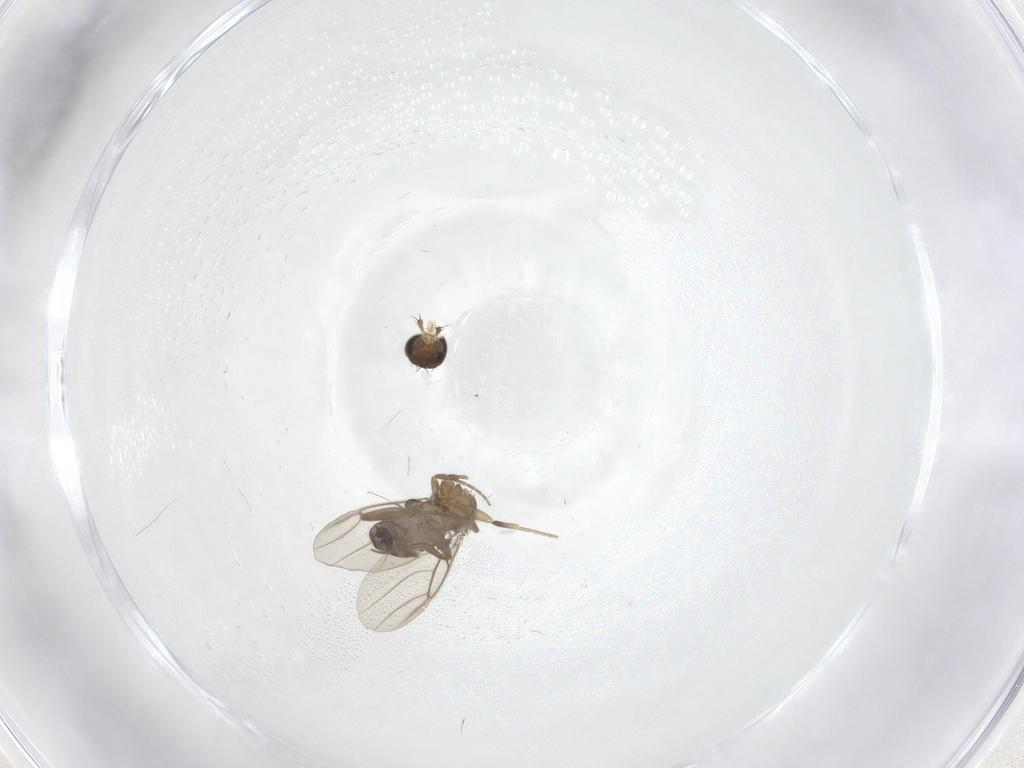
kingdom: Animalia
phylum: Arthropoda
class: Insecta
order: Diptera
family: Phoridae
